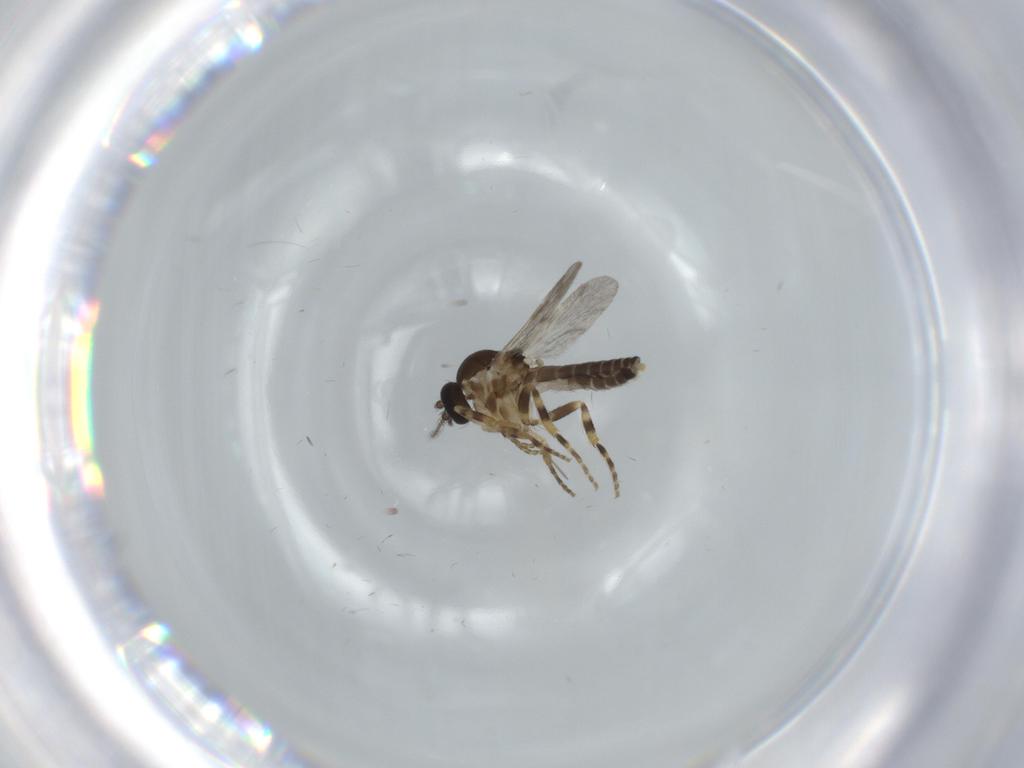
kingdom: Animalia
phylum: Arthropoda
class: Insecta
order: Diptera
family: Ceratopogonidae
